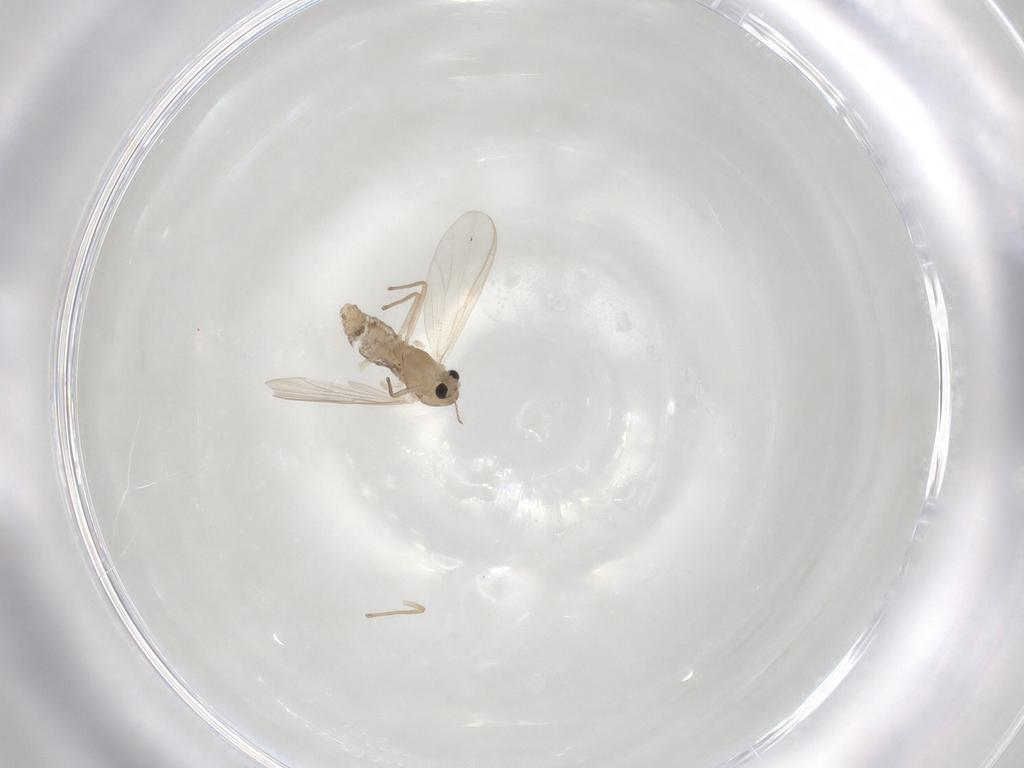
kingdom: Animalia
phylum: Arthropoda
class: Insecta
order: Diptera
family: Chironomidae
